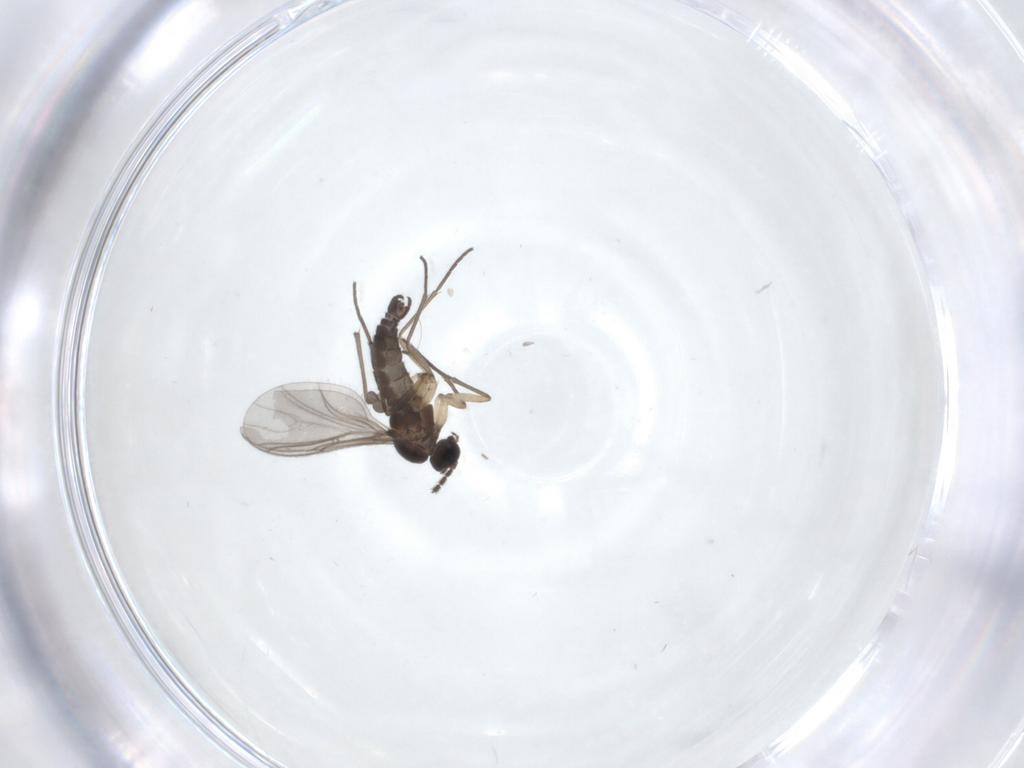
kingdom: Animalia
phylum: Arthropoda
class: Insecta
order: Diptera
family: Sciaridae
